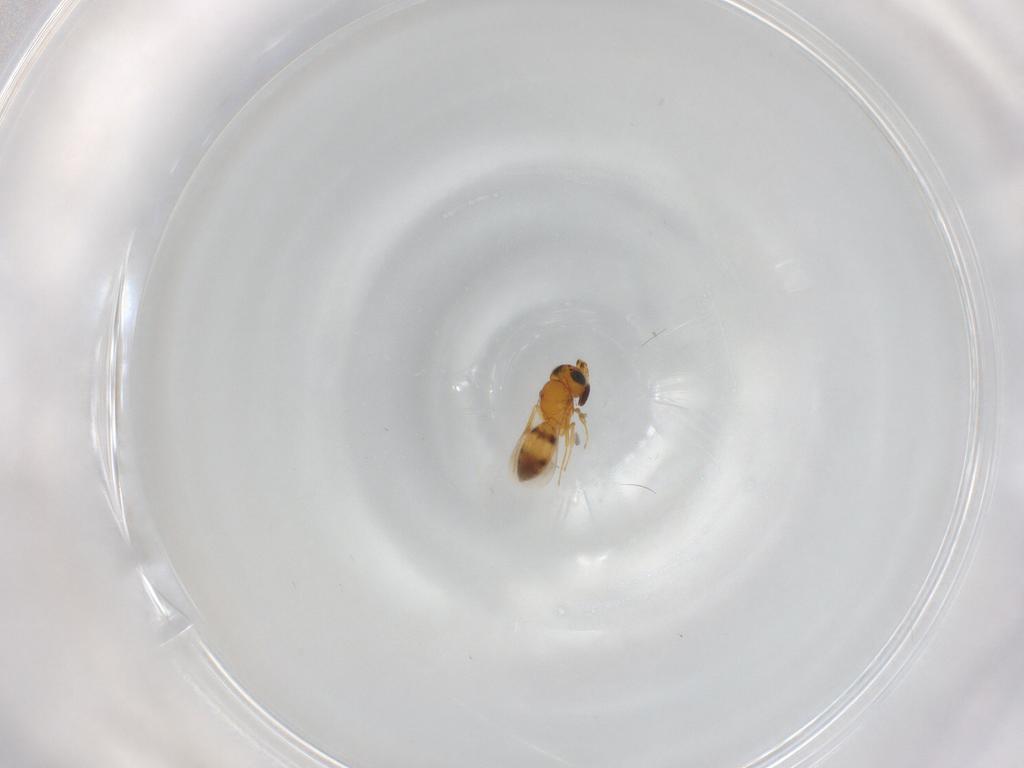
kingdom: Animalia
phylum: Arthropoda
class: Insecta
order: Hymenoptera
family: Scelionidae
